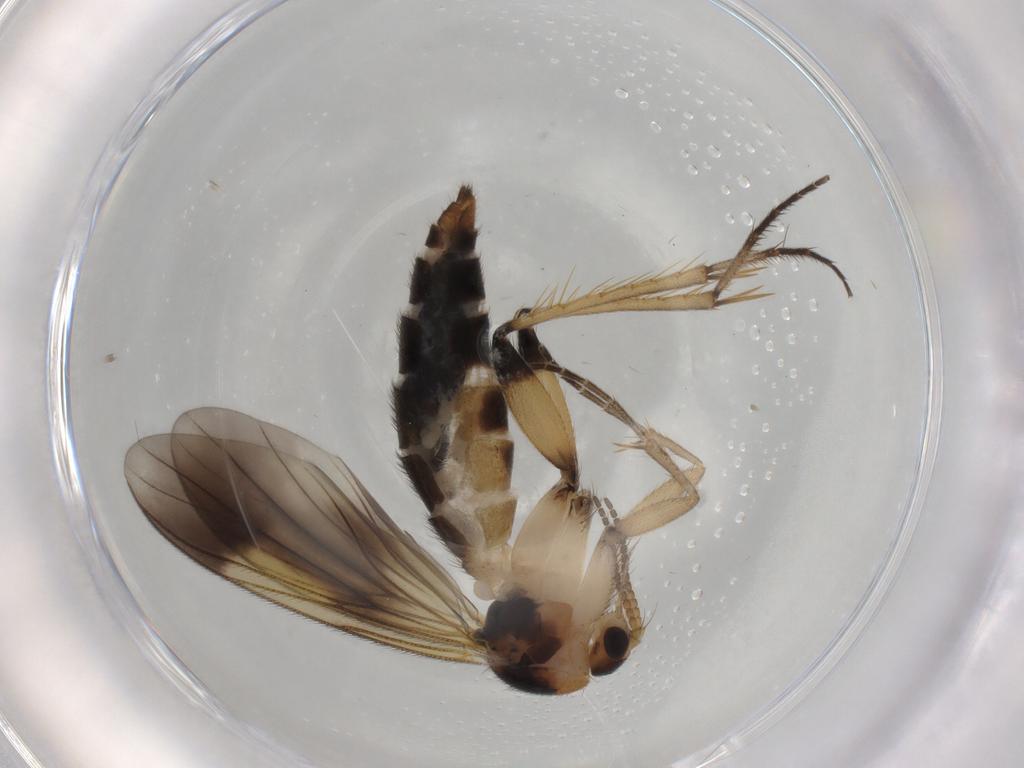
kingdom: Animalia
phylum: Arthropoda
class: Insecta
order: Diptera
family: Mycetophilidae
